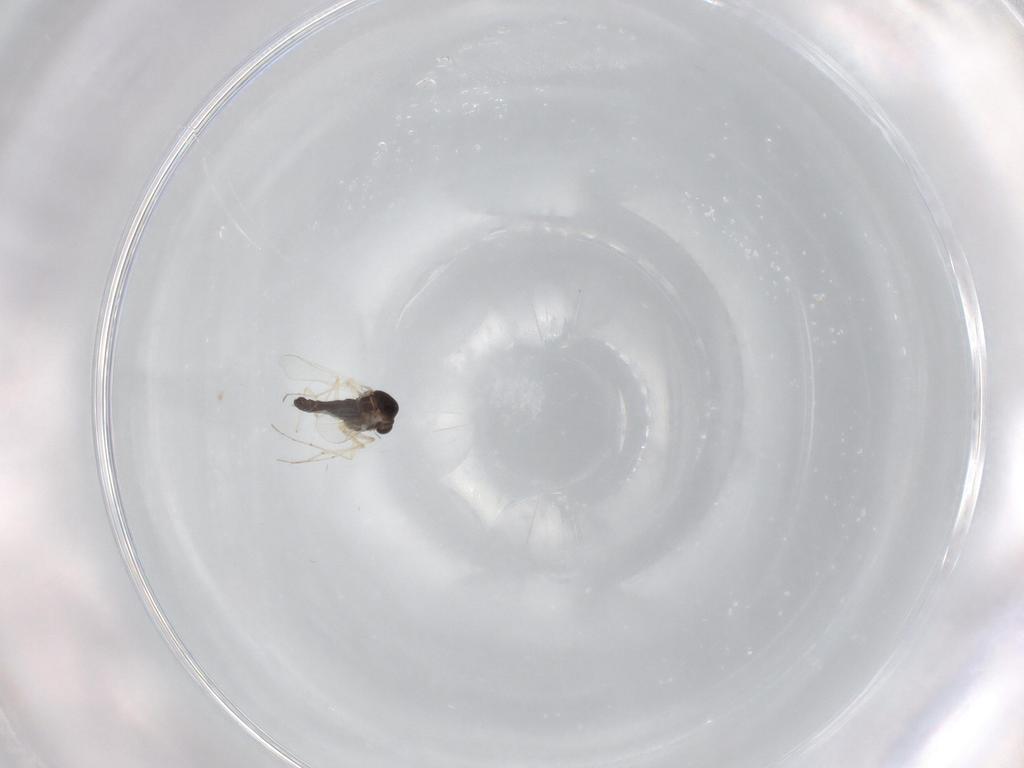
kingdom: Animalia
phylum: Arthropoda
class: Insecta
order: Diptera
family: Chironomidae
